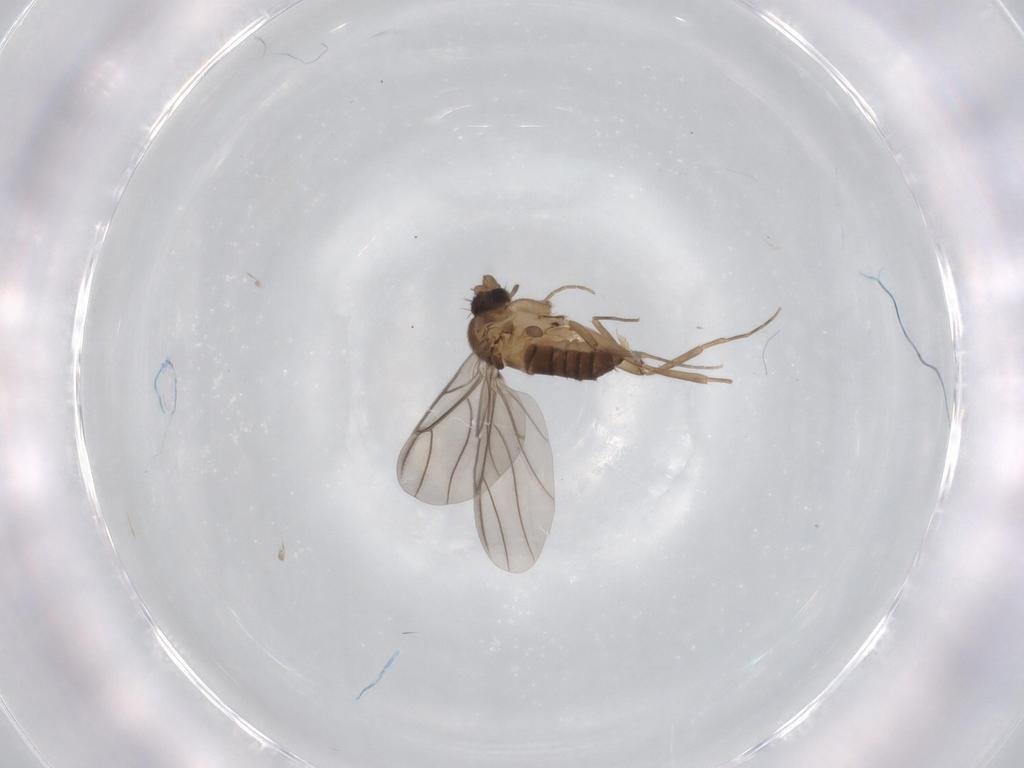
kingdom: Animalia
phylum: Arthropoda
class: Insecta
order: Diptera
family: Phoridae
